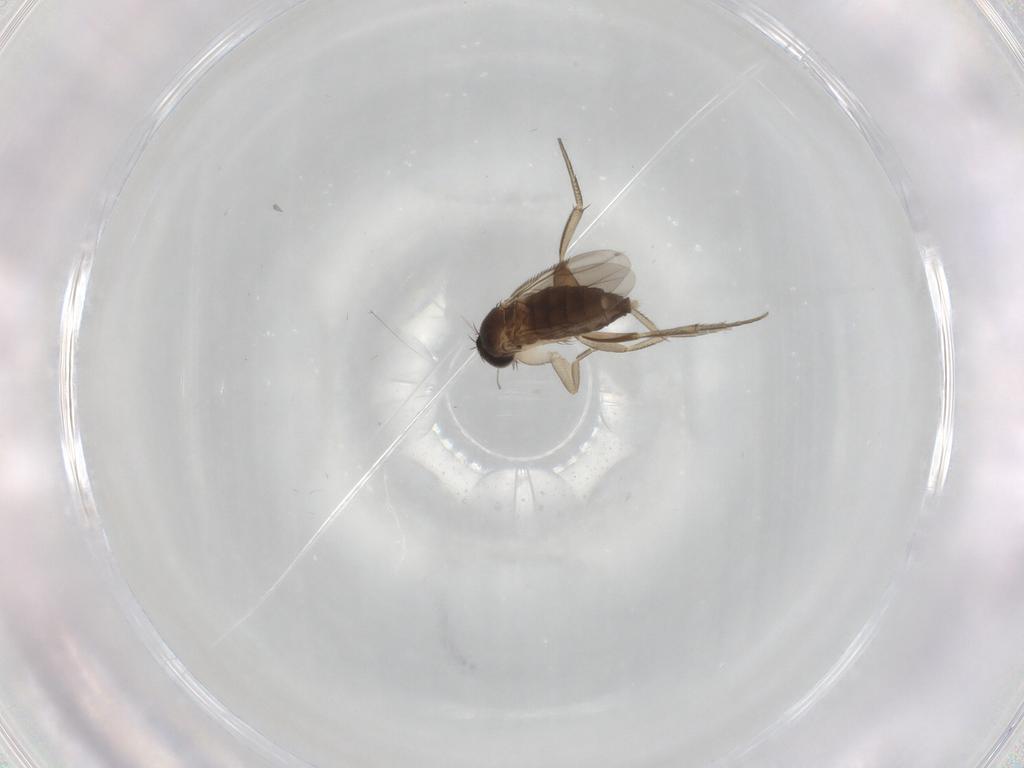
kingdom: Animalia
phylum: Arthropoda
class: Insecta
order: Diptera
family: Phoridae
